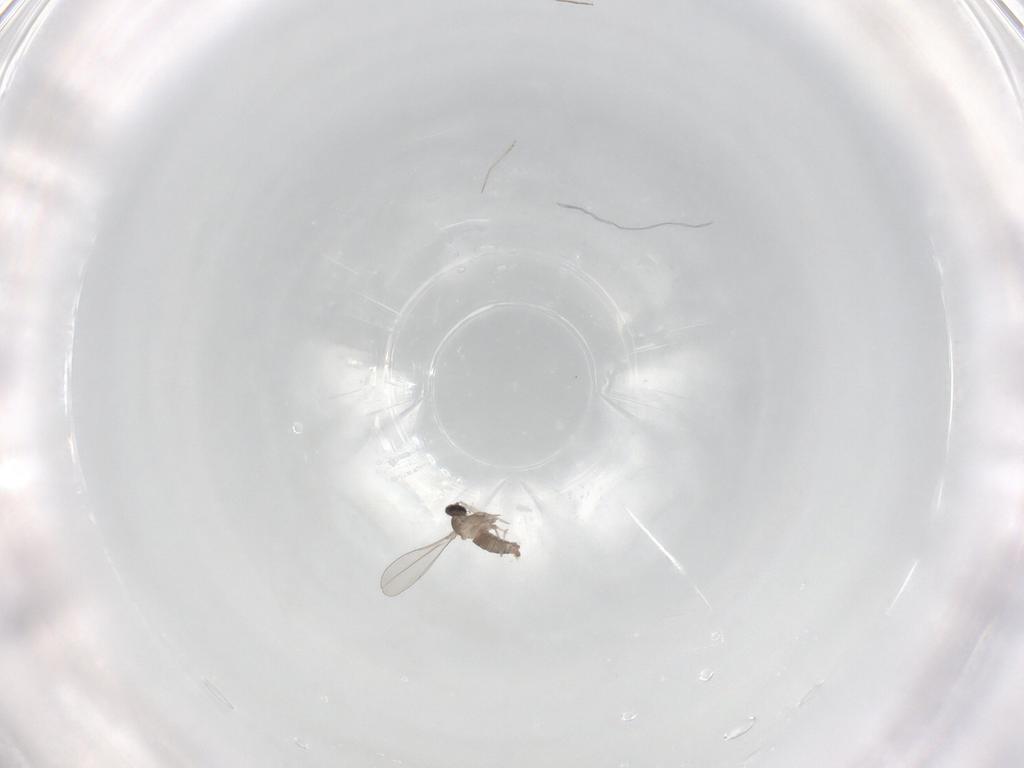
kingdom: Animalia
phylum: Arthropoda
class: Insecta
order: Diptera
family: Cecidomyiidae
